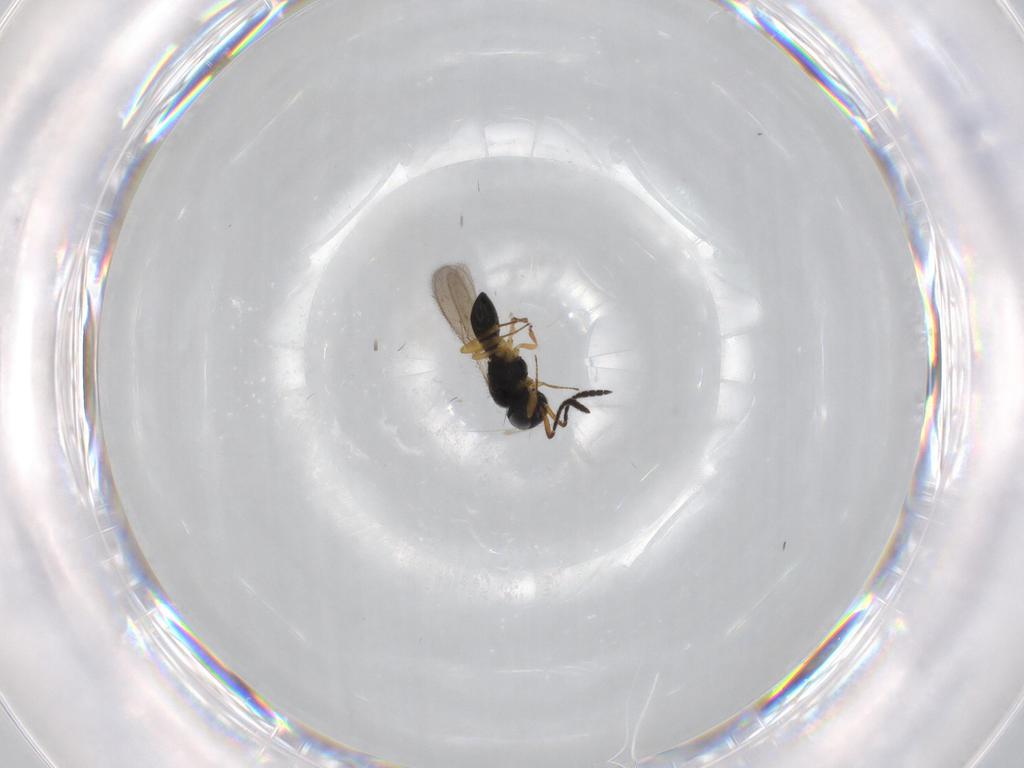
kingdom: Animalia
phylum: Arthropoda
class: Insecta
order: Hymenoptera
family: Scelionidae
